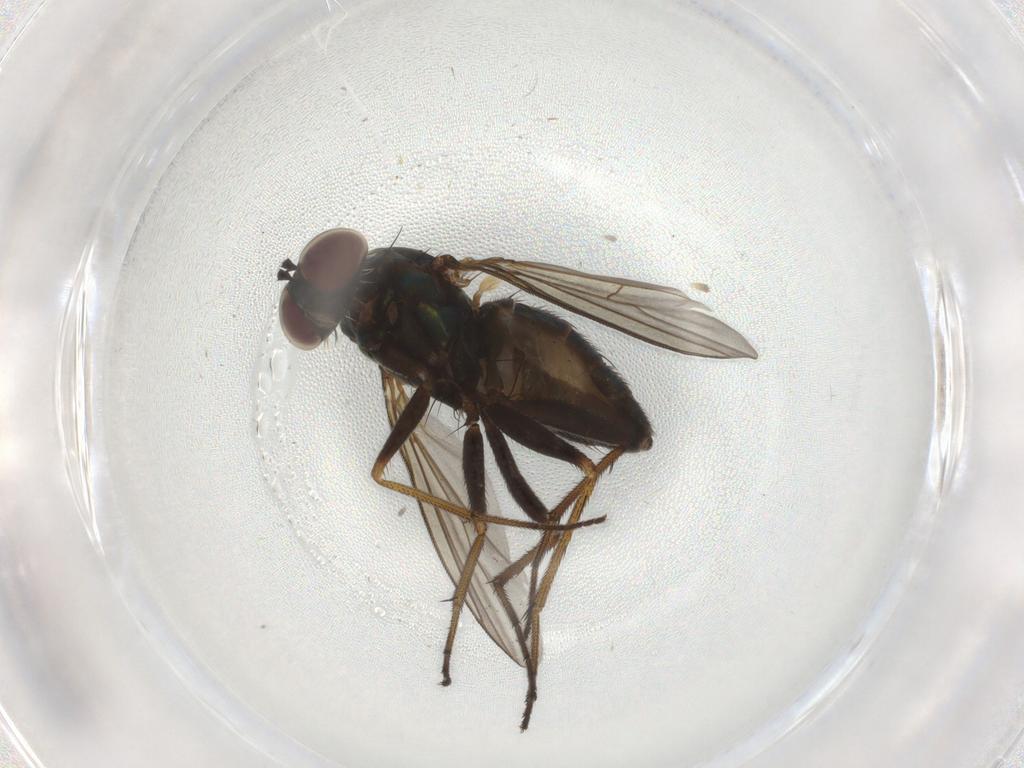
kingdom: Animalia
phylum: Arthropoda
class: Insecta
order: Diptera
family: Dolichopodidae
